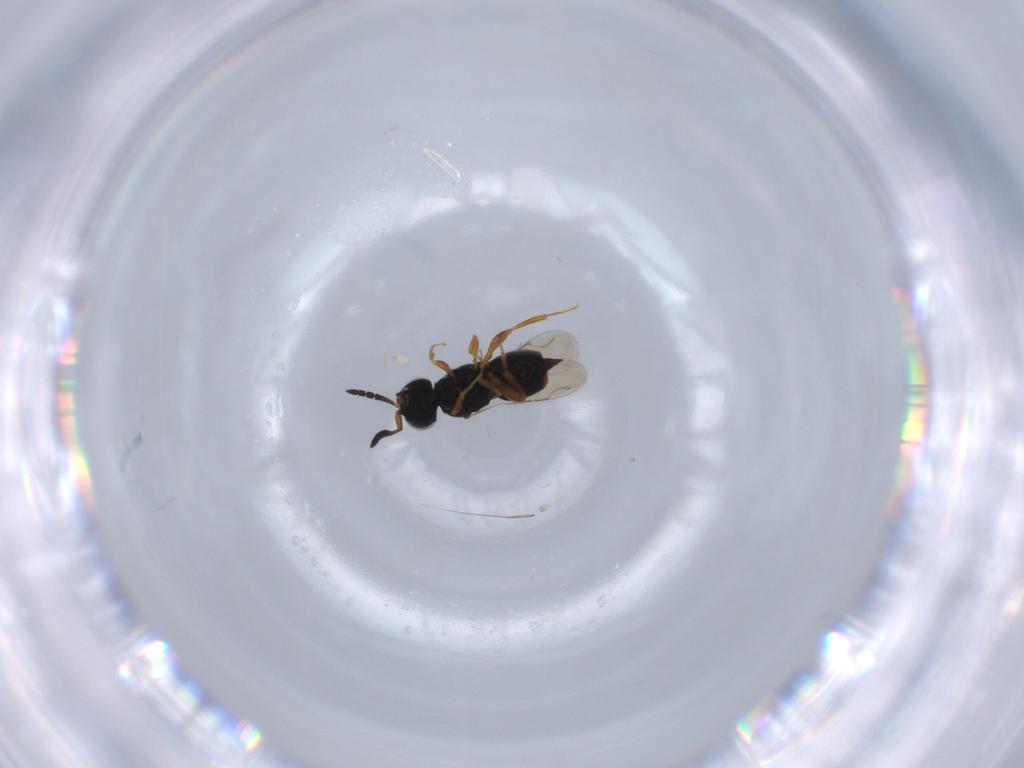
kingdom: Animalia
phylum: Arthropoda
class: Insecta
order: Hymenoptera
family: Ceraphronidae
